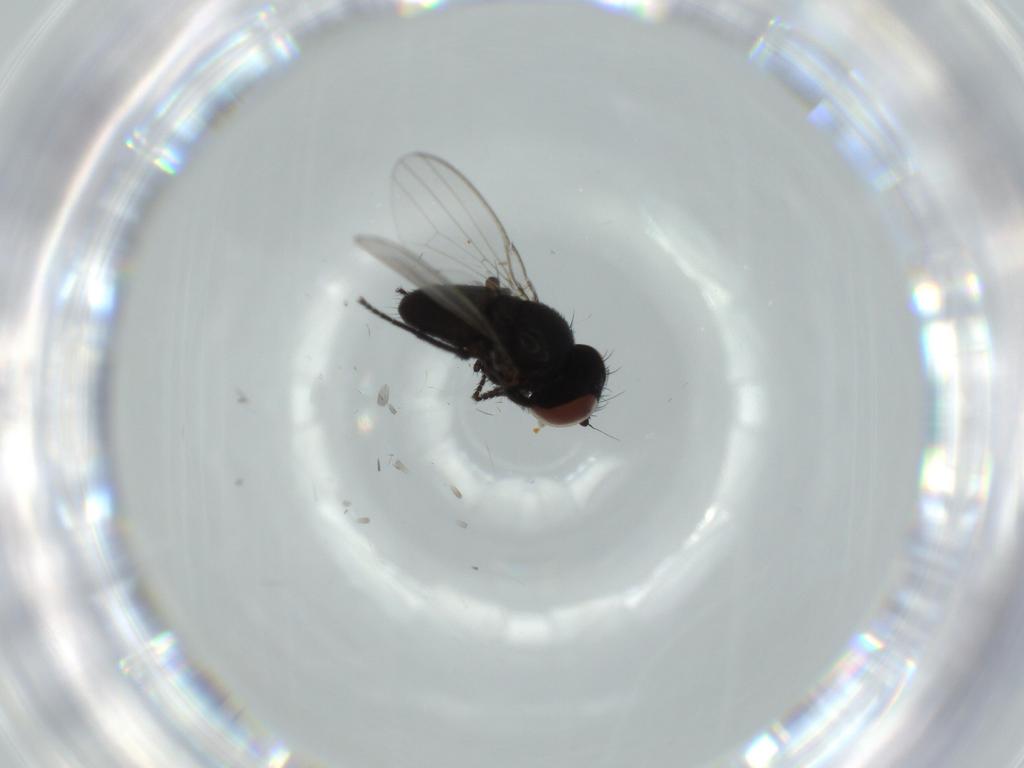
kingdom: Animalia
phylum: Arthropoda
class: Insecta
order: Diptera
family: Milichiidae
